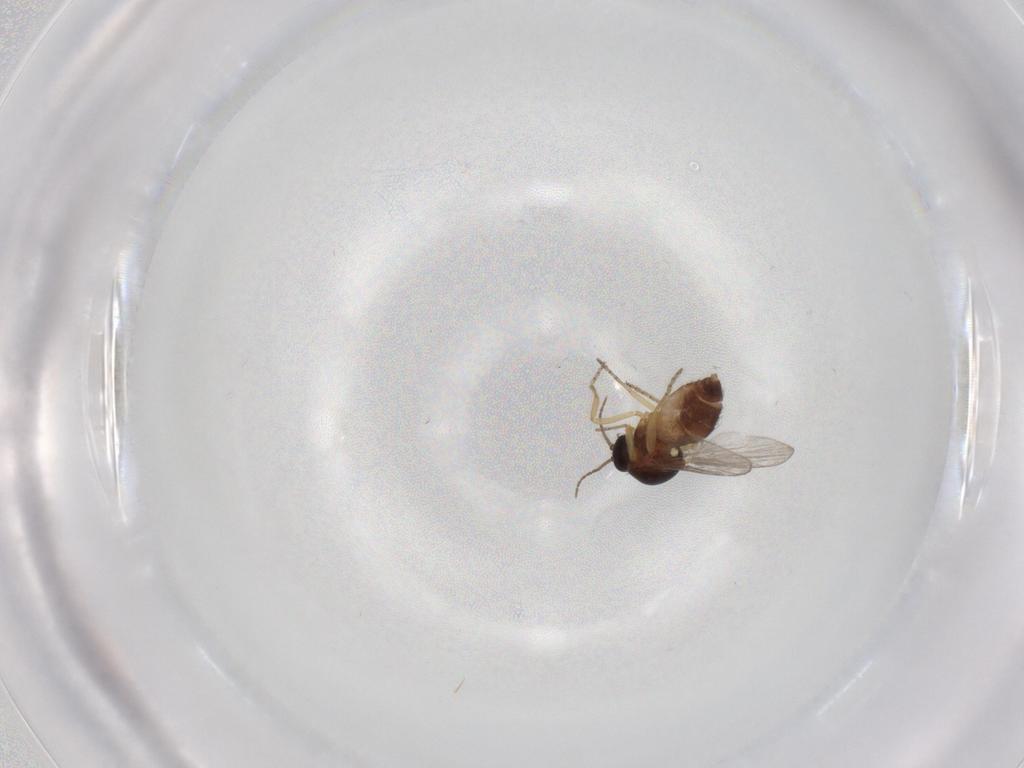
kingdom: Animalia
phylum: Arthropoda
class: Insecta
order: Diptera
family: Ceratopogonidae
